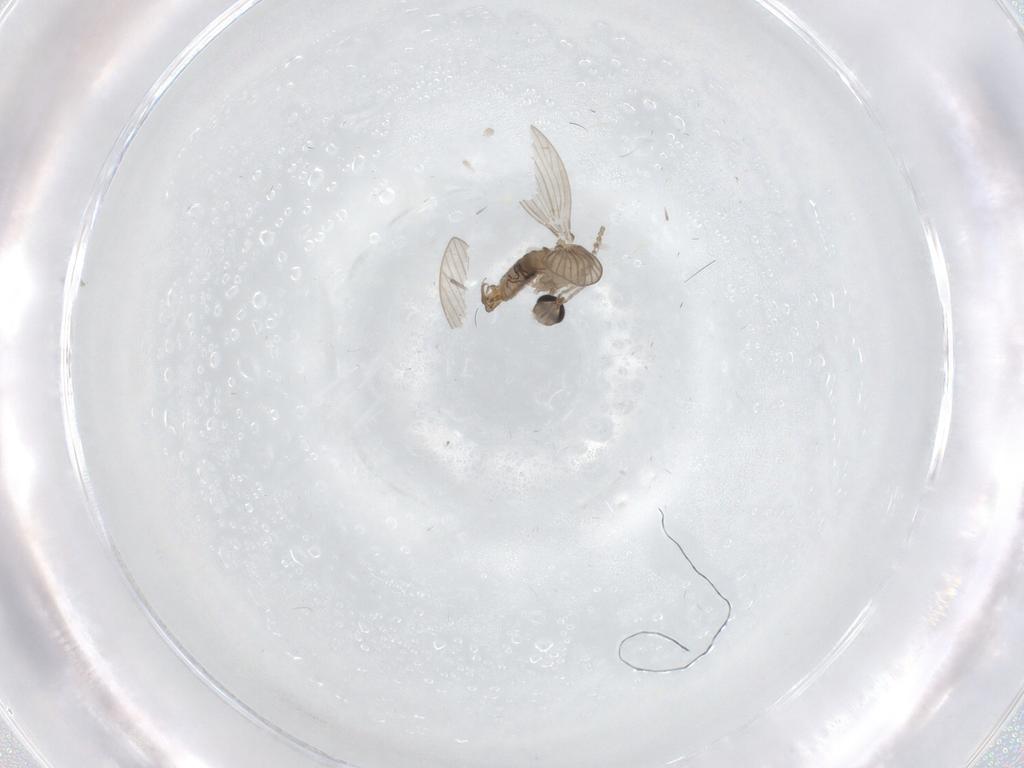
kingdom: Animalia
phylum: Arthropoda
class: Insecta
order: Diptera
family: Psychodidae
